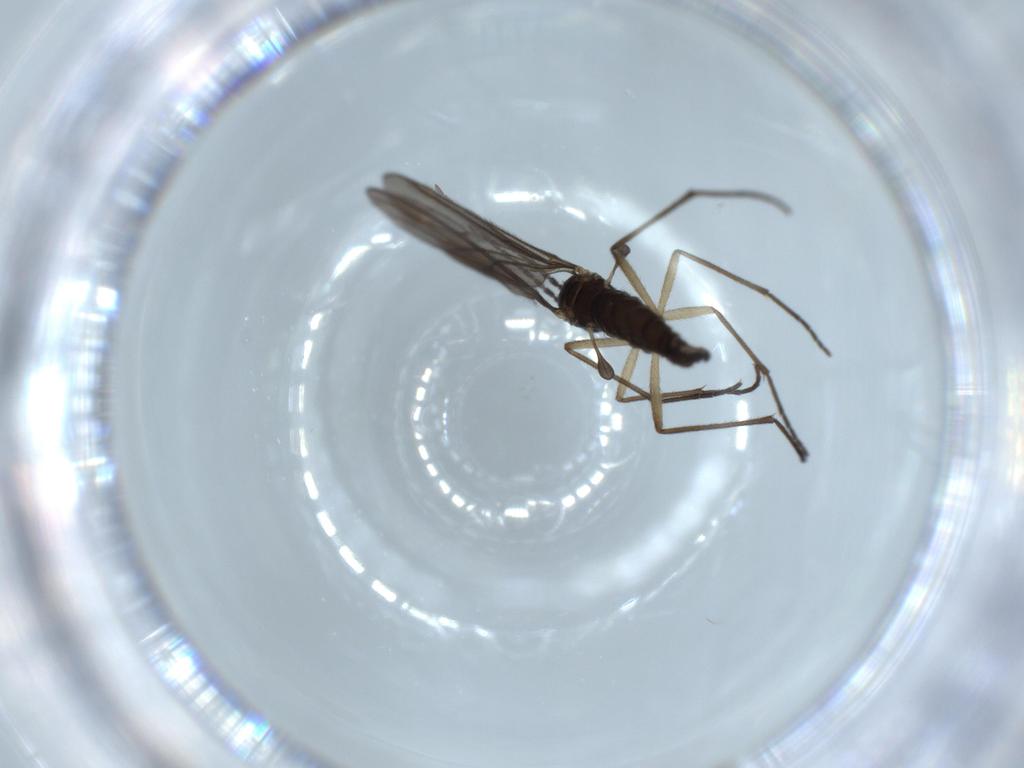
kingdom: Animalia
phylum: Arthropoda
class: Insecta
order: Diptera
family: Sciaridae
